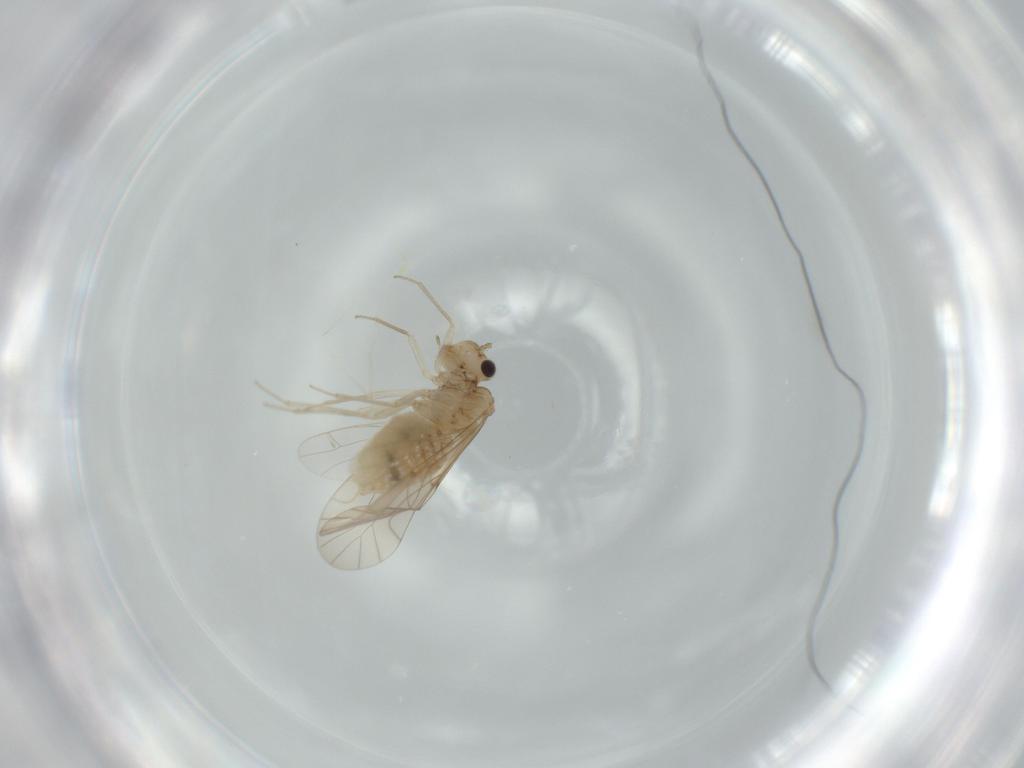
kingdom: Animalia
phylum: Arthropoda
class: Insecta
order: Psocodea
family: Lachesillidae
